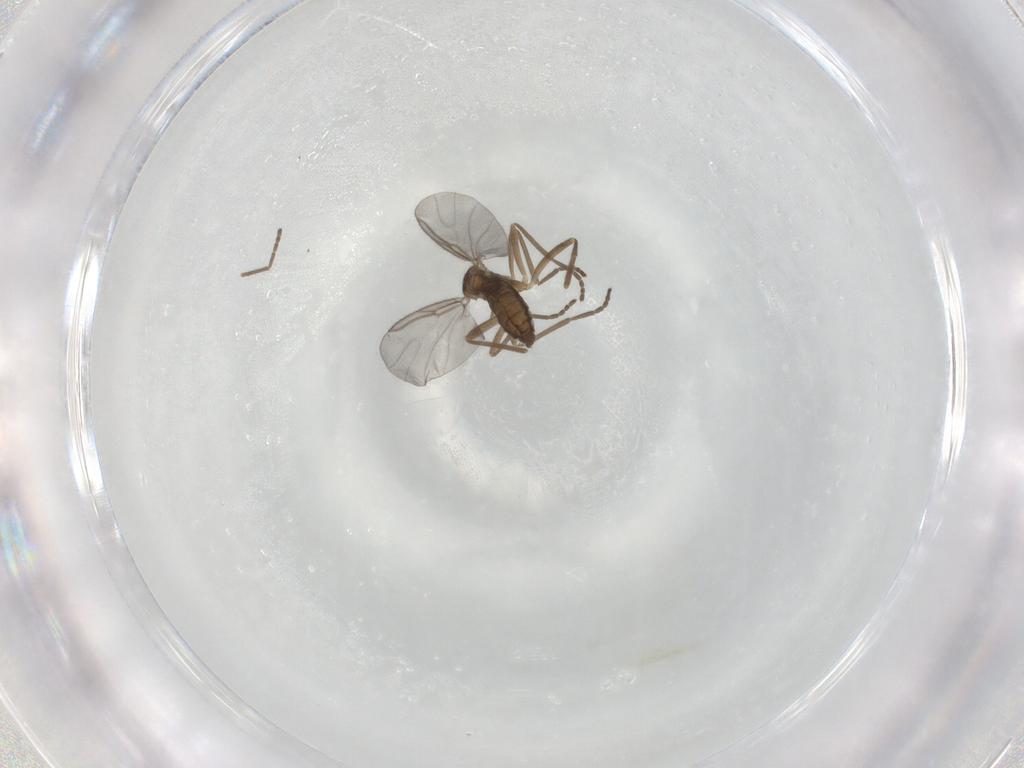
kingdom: Animalia
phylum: Arthropoda
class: Insecta
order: Diptera
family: Cecidomyiidae
